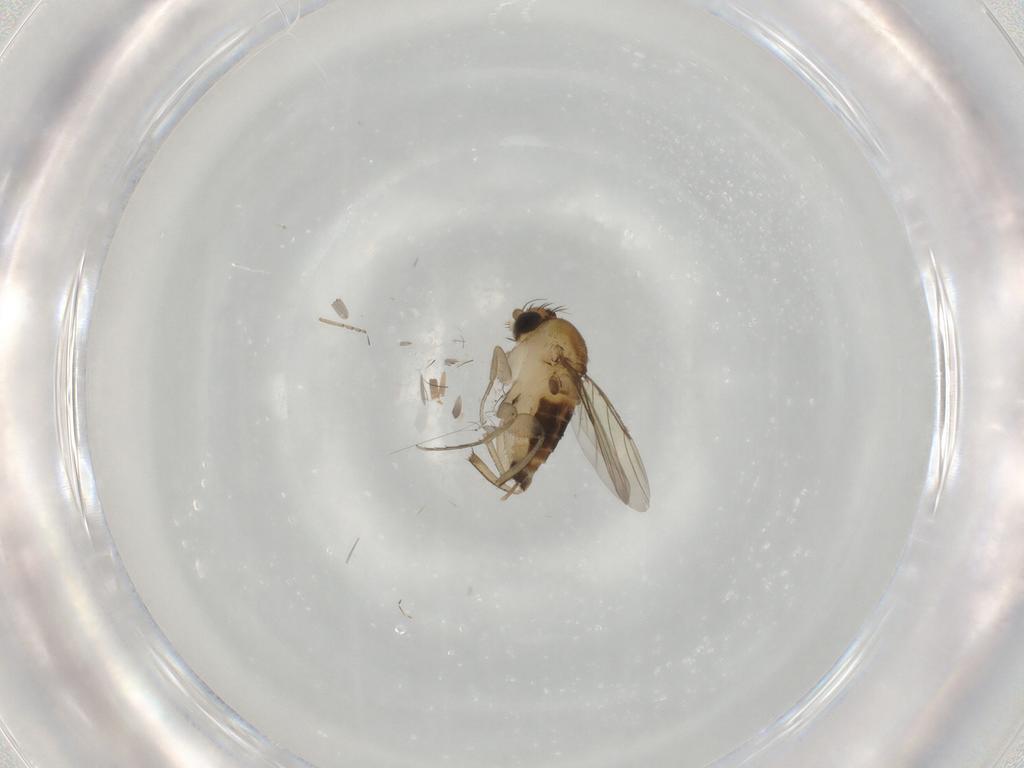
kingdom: Animalia
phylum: Arthropoda
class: Insecta
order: Diptera
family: Phoridae
